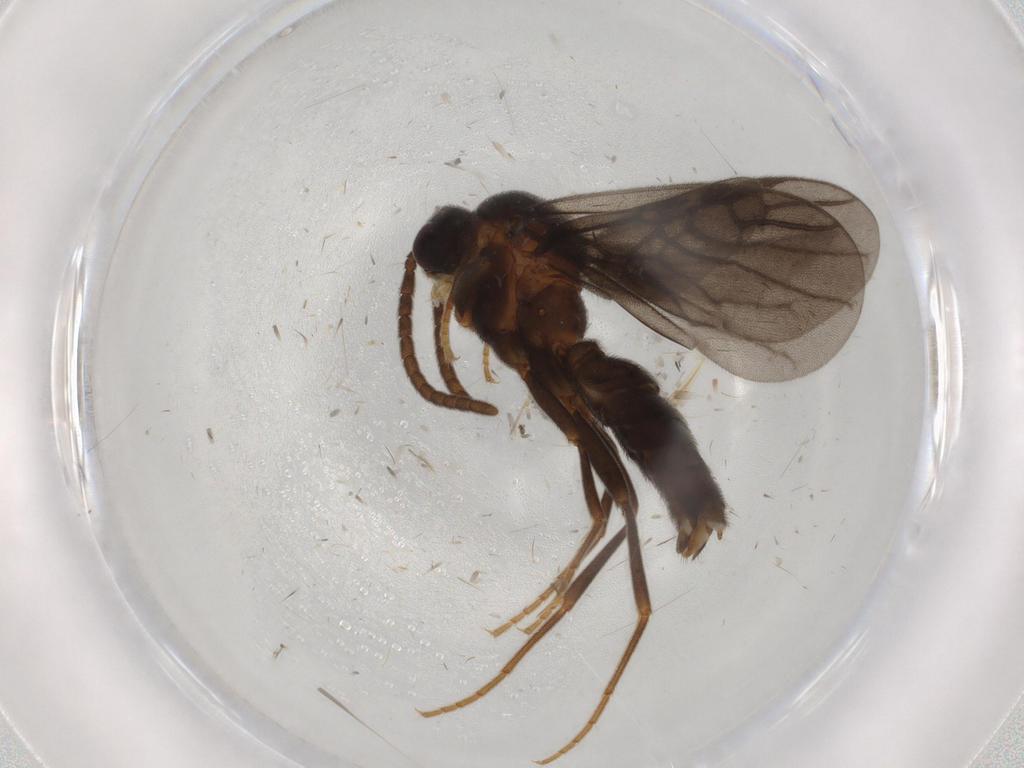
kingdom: Animalia
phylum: Arthropoda
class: Insecta
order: Hymenoptera
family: Formicidae
